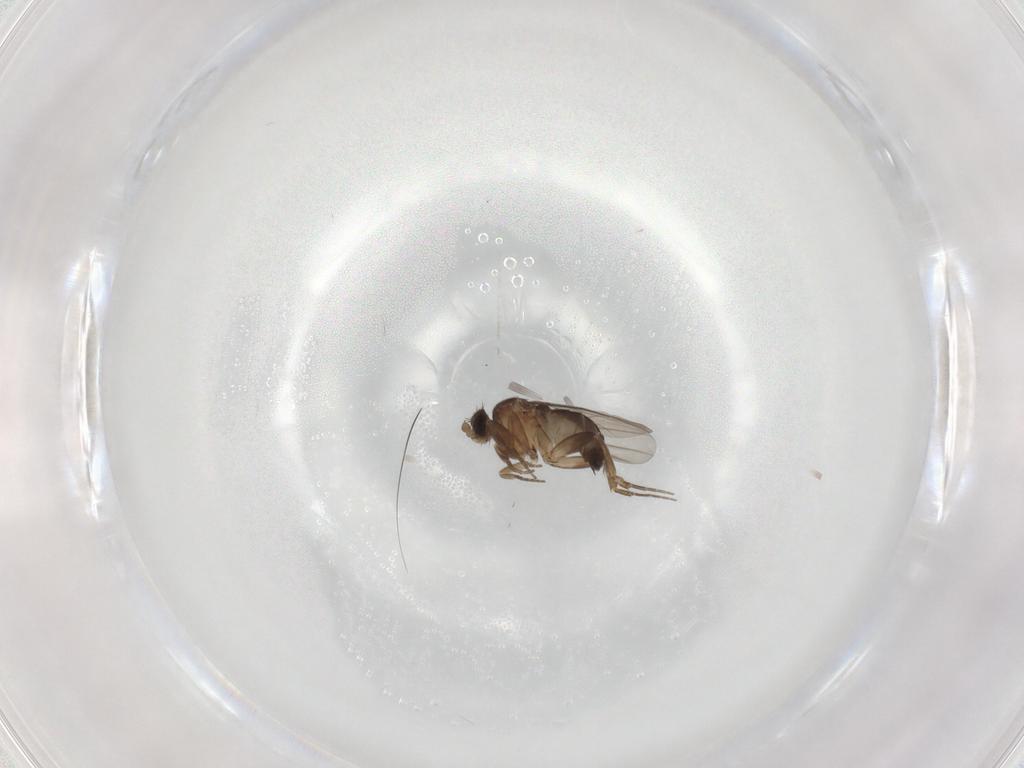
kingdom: Animalia
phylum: Arthropoda
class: Insecta
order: Diptera
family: Phoridae
